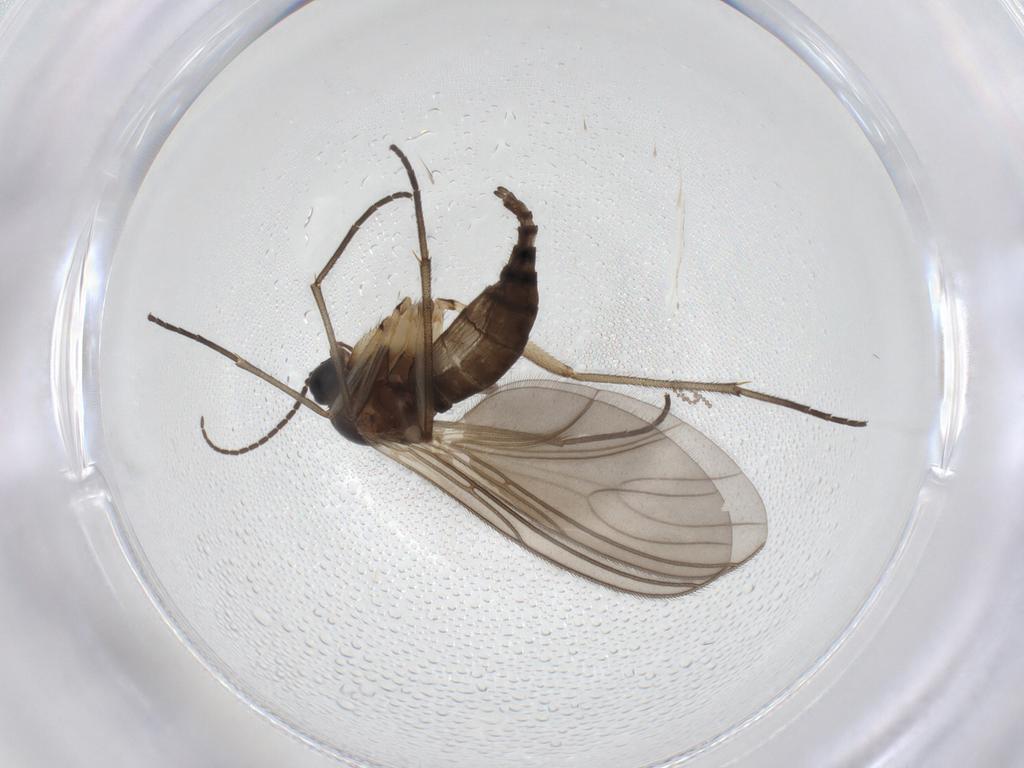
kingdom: Animalia
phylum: Arthropoda
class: Insecta
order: Diptera
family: Sciaridae
